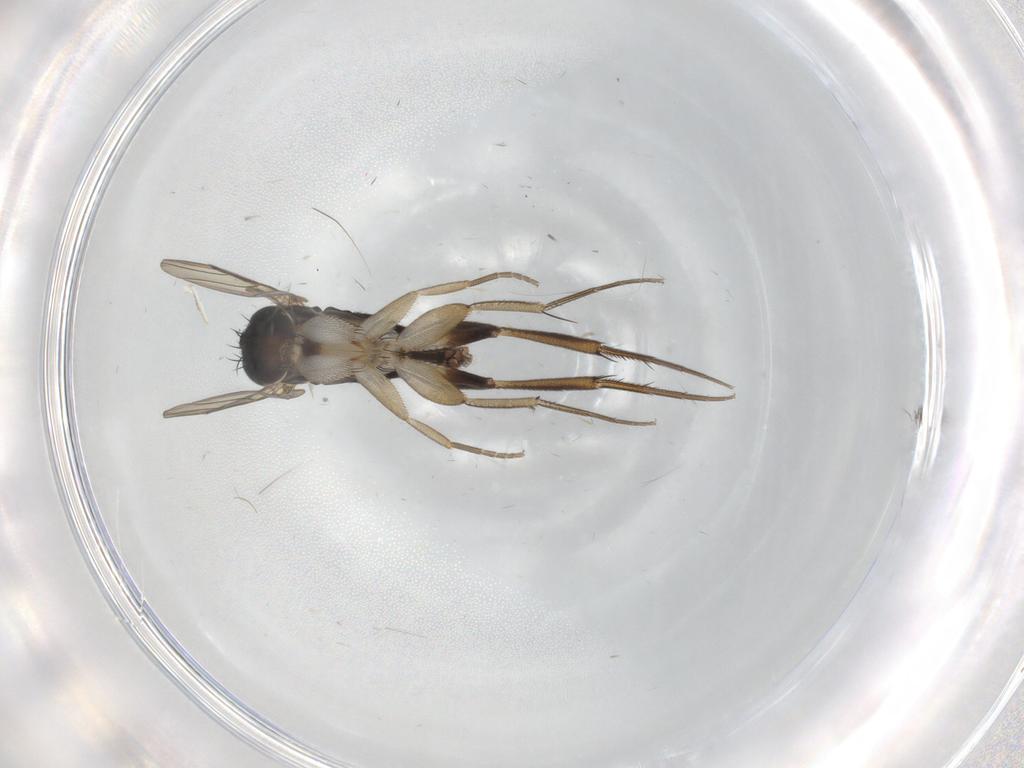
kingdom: Animalia
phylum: Arthropoda
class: Insecta
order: Diptera
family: Phoridae
